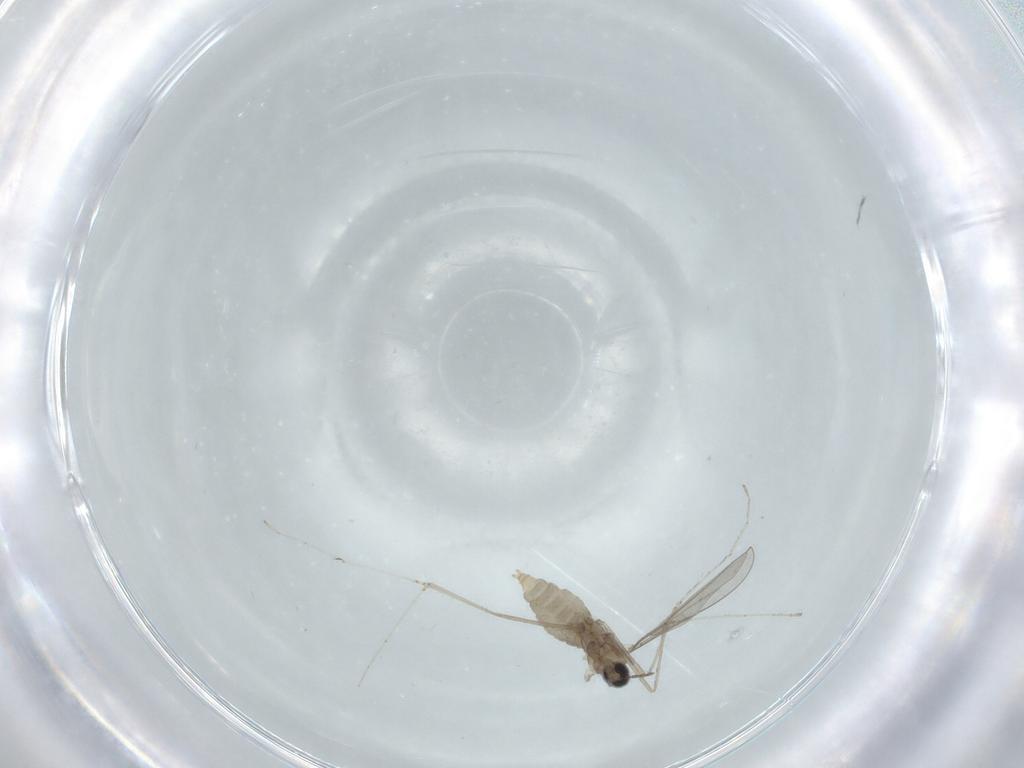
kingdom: Animalia
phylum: Arthropoda
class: Insecta
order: Diptera
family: Cecidomyiidae
